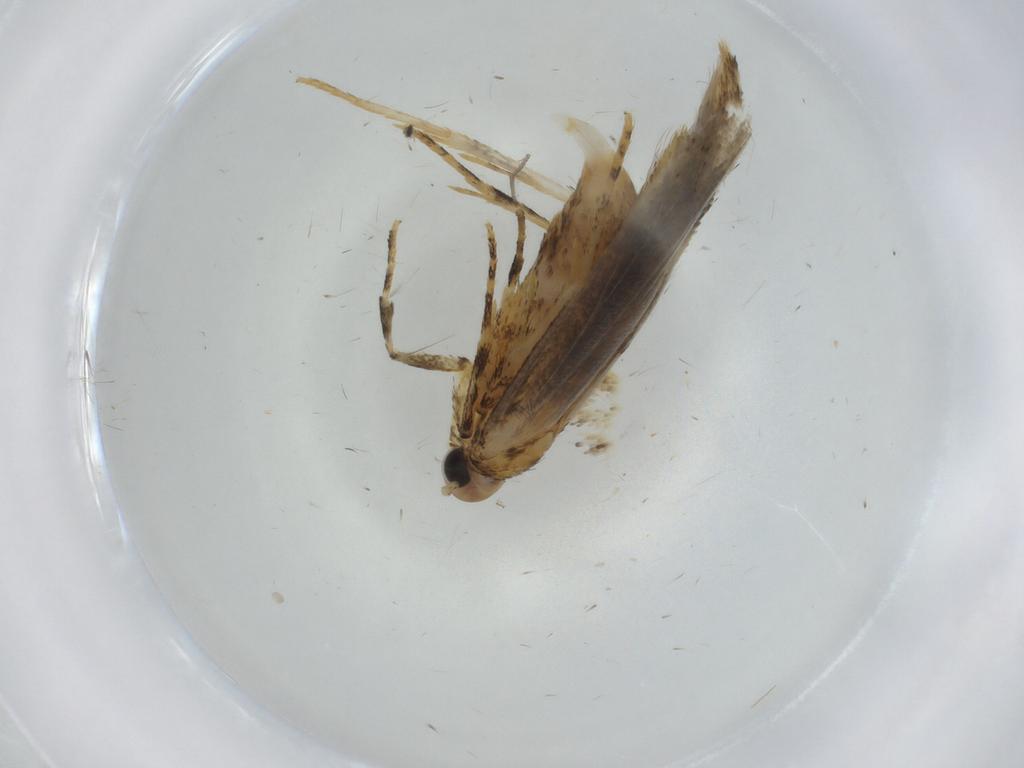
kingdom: Animalia
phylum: Arthropoda
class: Insecta
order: Lepidoptera
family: Gelechiidae
